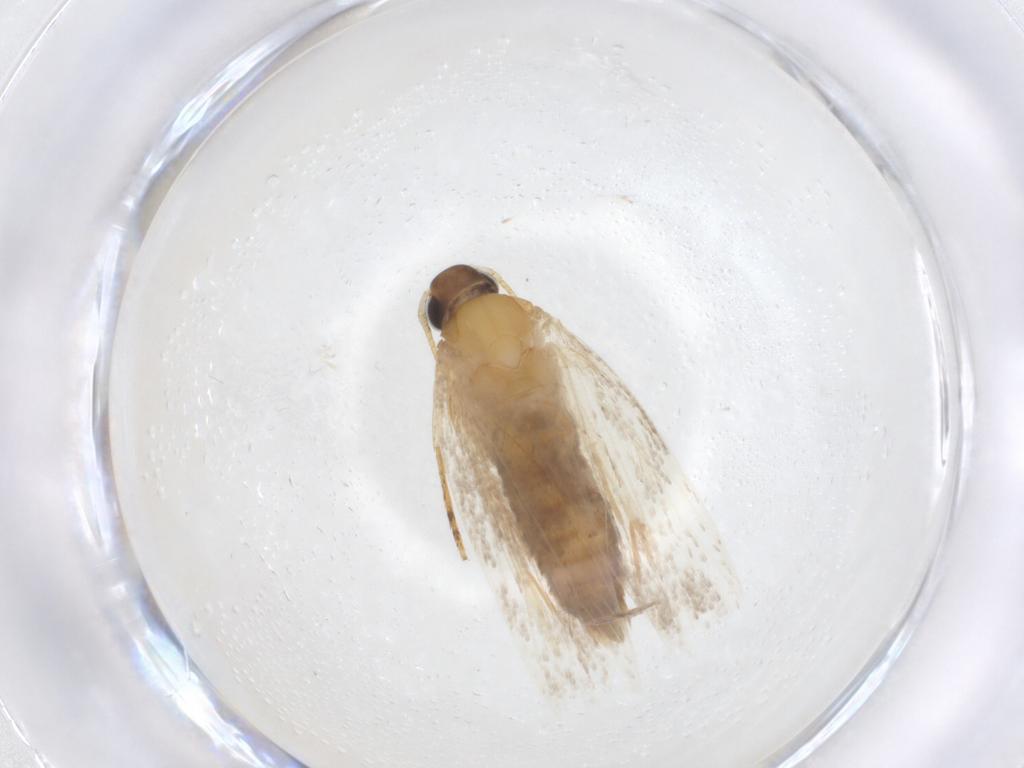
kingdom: Animalia
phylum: Arthropoda
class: Insecta
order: Lepidoptera
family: Oecophoridae
